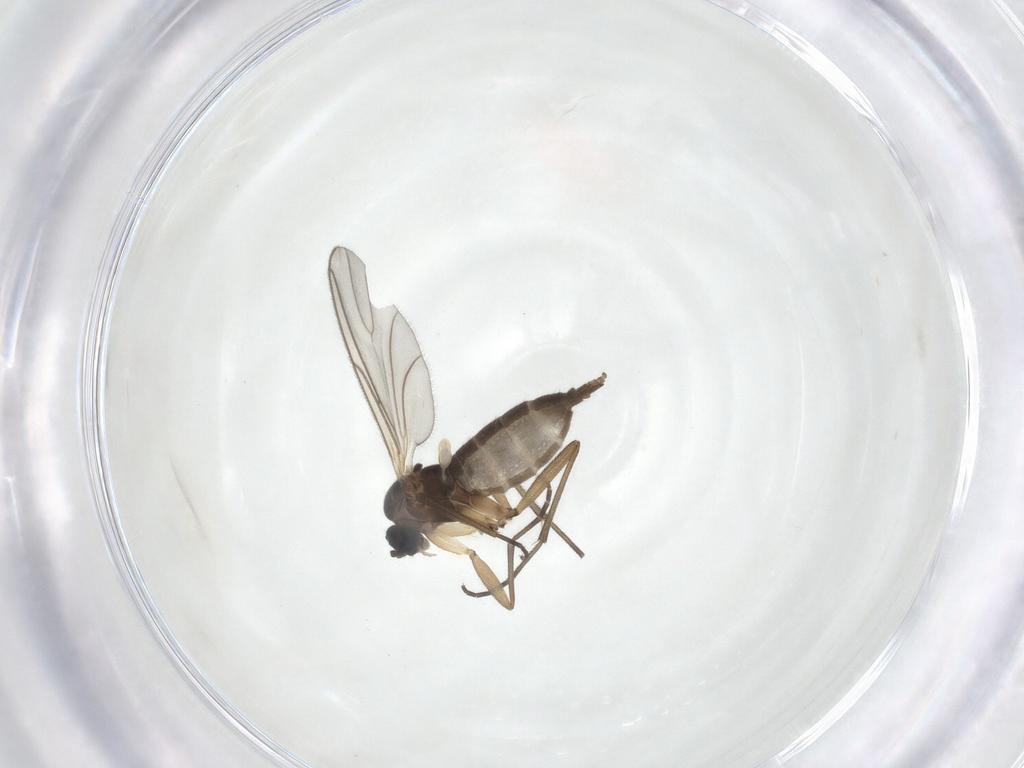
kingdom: Animalia
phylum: Arthropoda
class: Insecta
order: Diptera
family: Sciaridae
